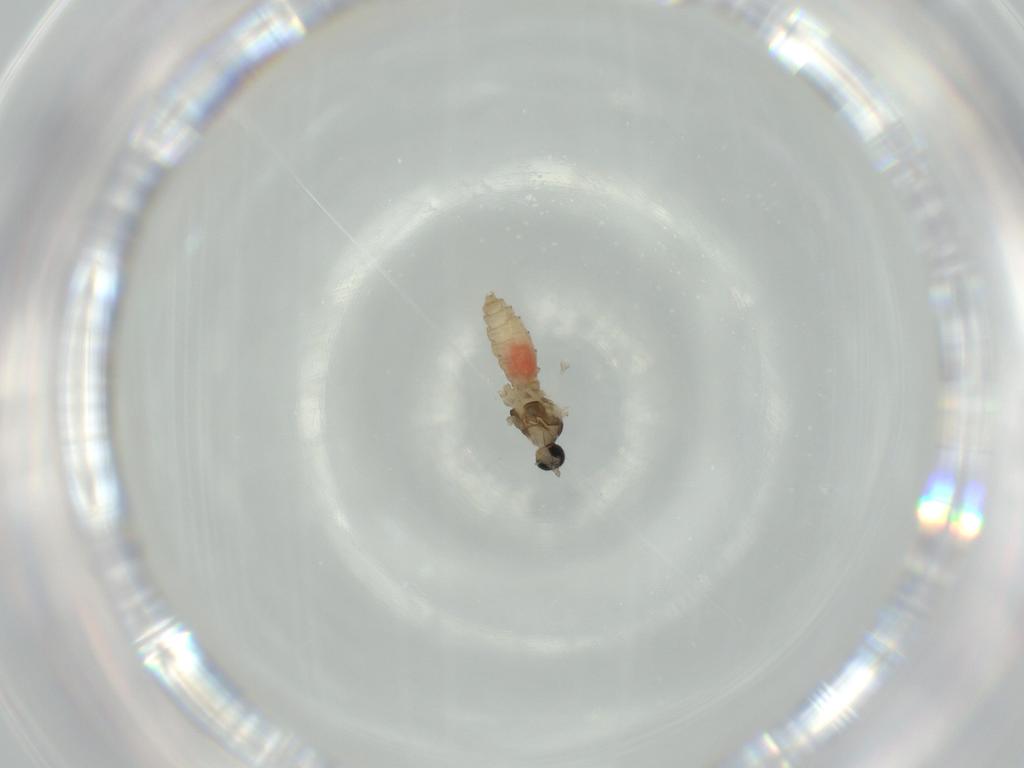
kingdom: Animalia
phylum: Arthropoda
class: Insecta
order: Diptera
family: Cecidomyiidae
